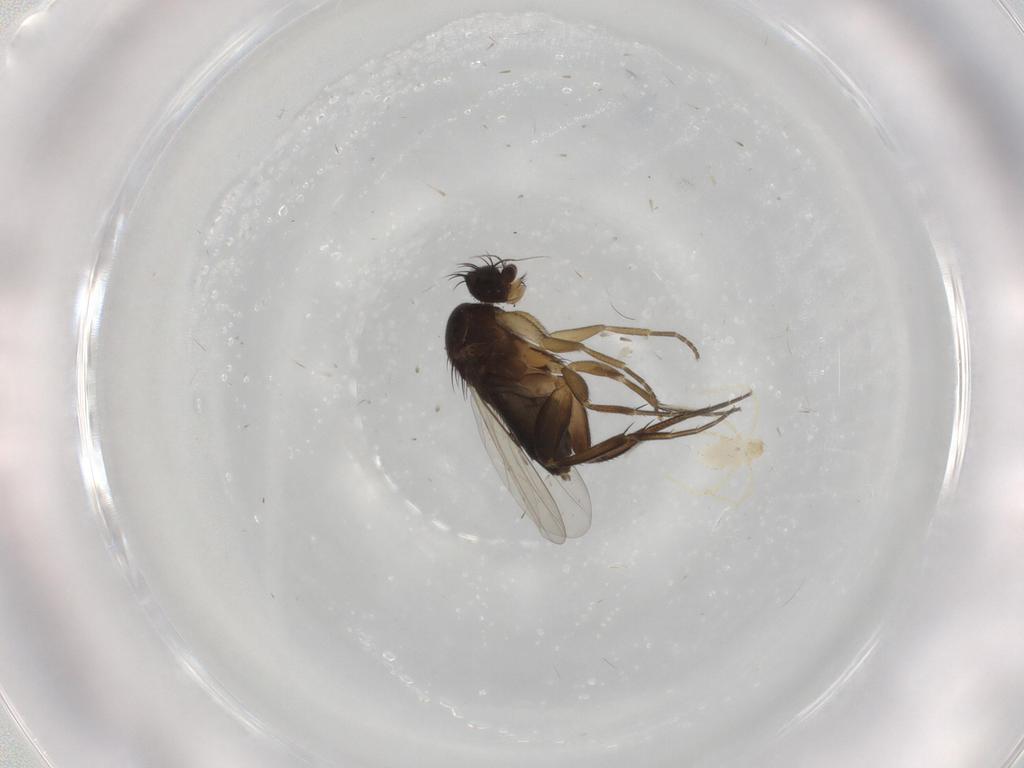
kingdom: Animalia
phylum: Arthropoda
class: Insecta
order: Diptera
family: Phoridae
